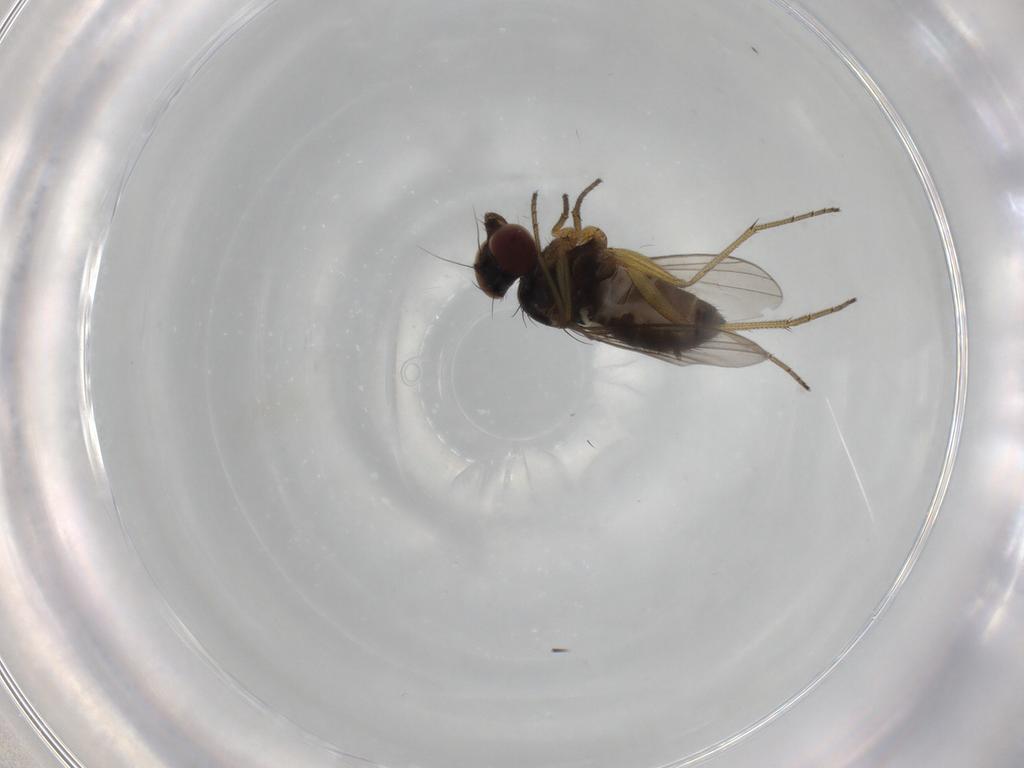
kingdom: Animalia
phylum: Arthropoda
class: Insecta
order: Diptera
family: Dolichopodidae
